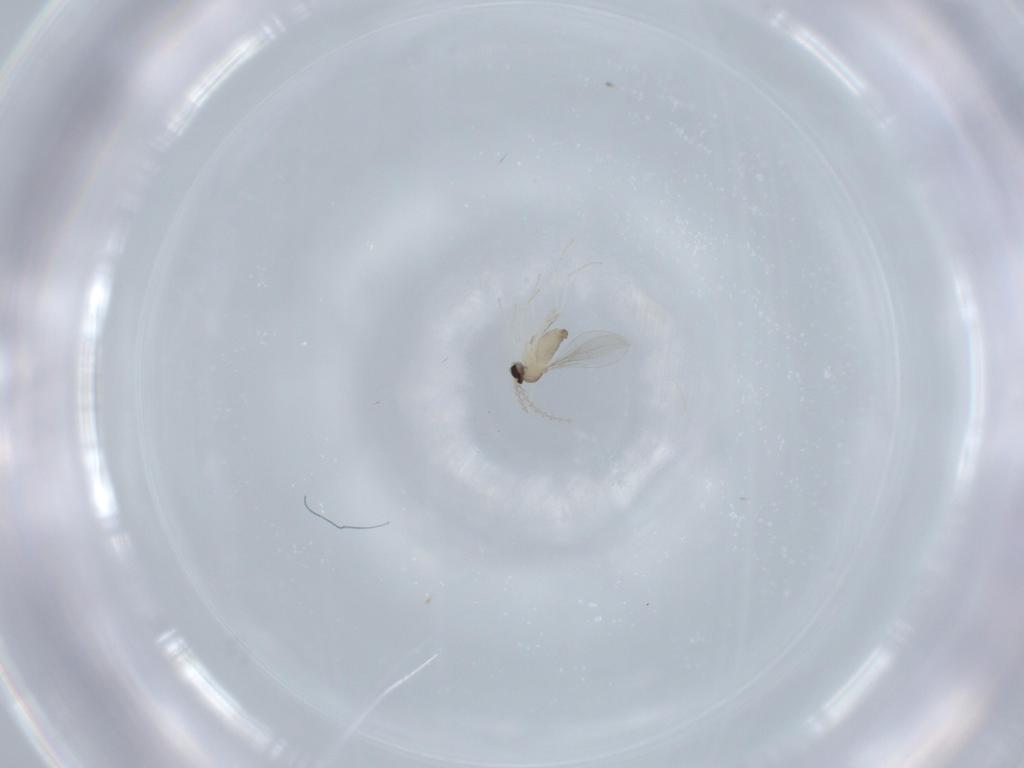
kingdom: Animalia
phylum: Arthropoda
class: Insecta
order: Diptera
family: Cecidomyiidae
